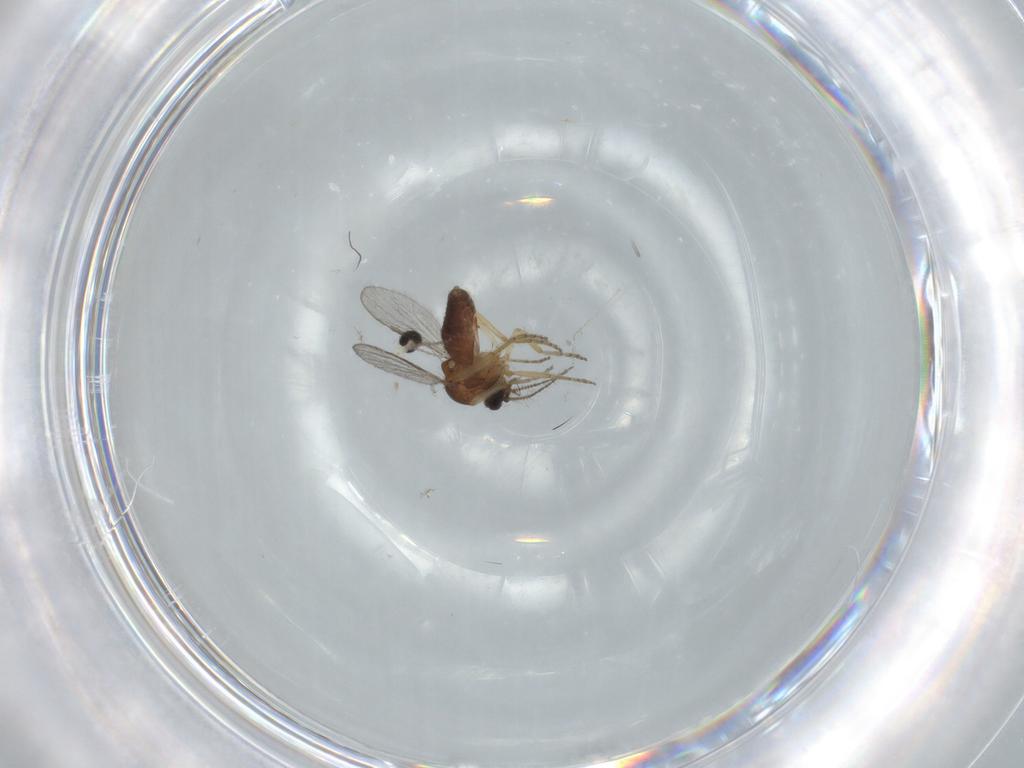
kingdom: Animalia
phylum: Arthropoda
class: Insecta
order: Diptera
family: Ceratopogonidae
